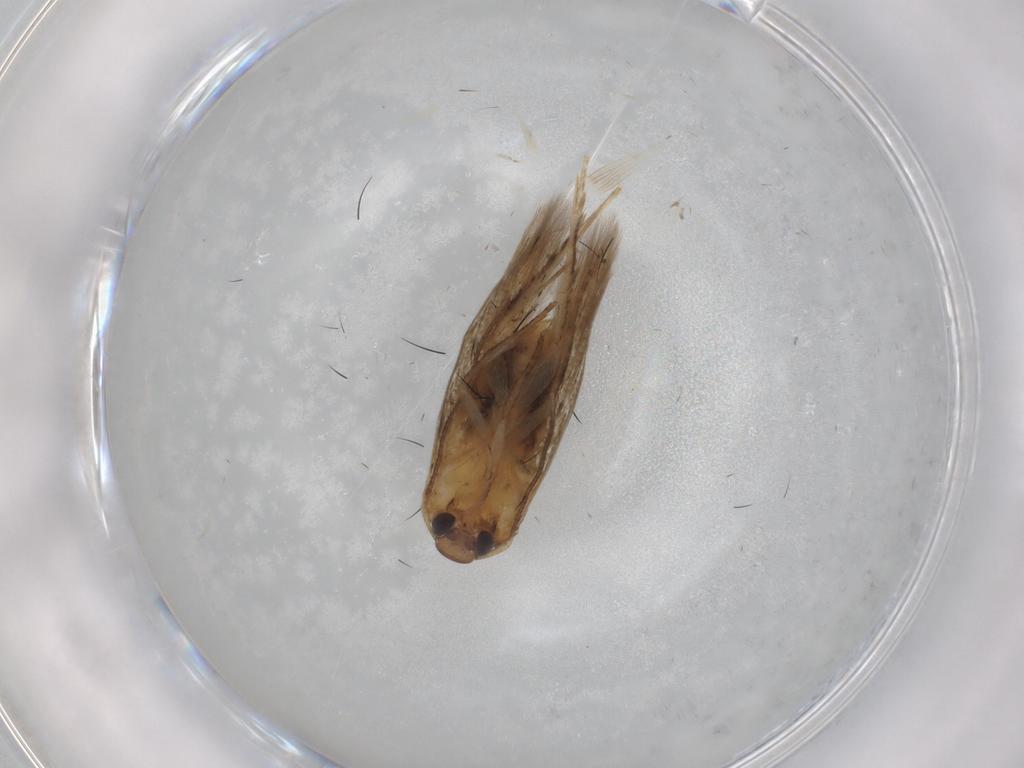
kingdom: Animalia
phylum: Arthropoda
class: Insecta
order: Lepidoptera
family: Cosmopterigidae
